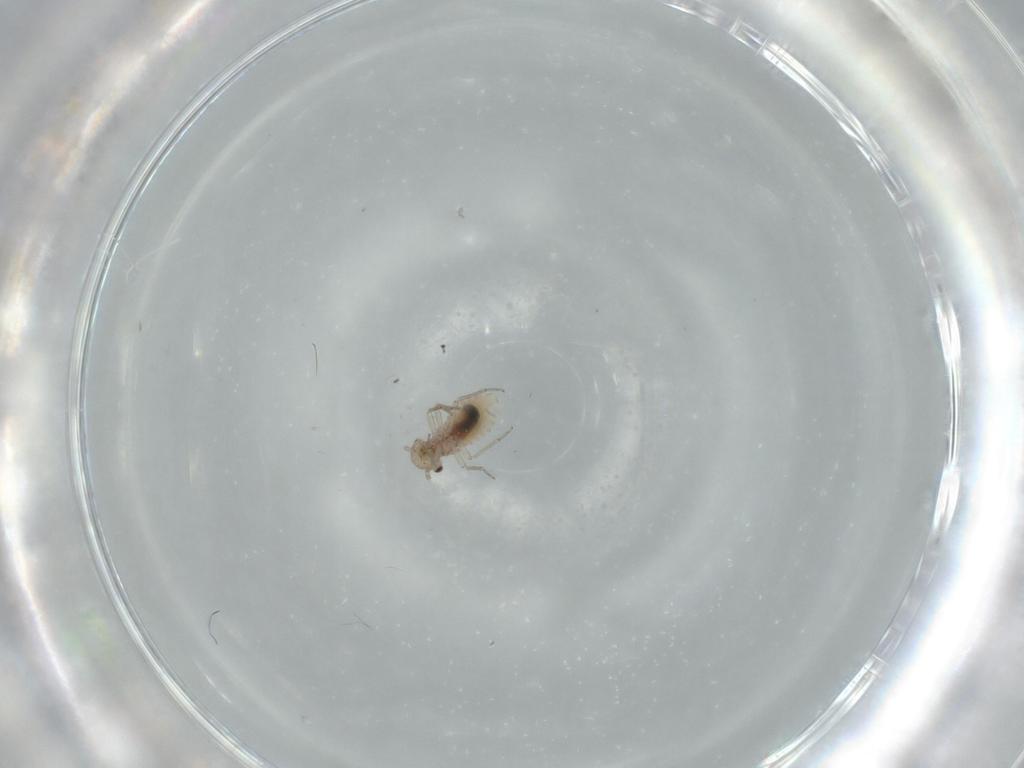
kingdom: Animalia
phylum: Arthropoda
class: Insecta
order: Psocodea
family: Lachesillidae
